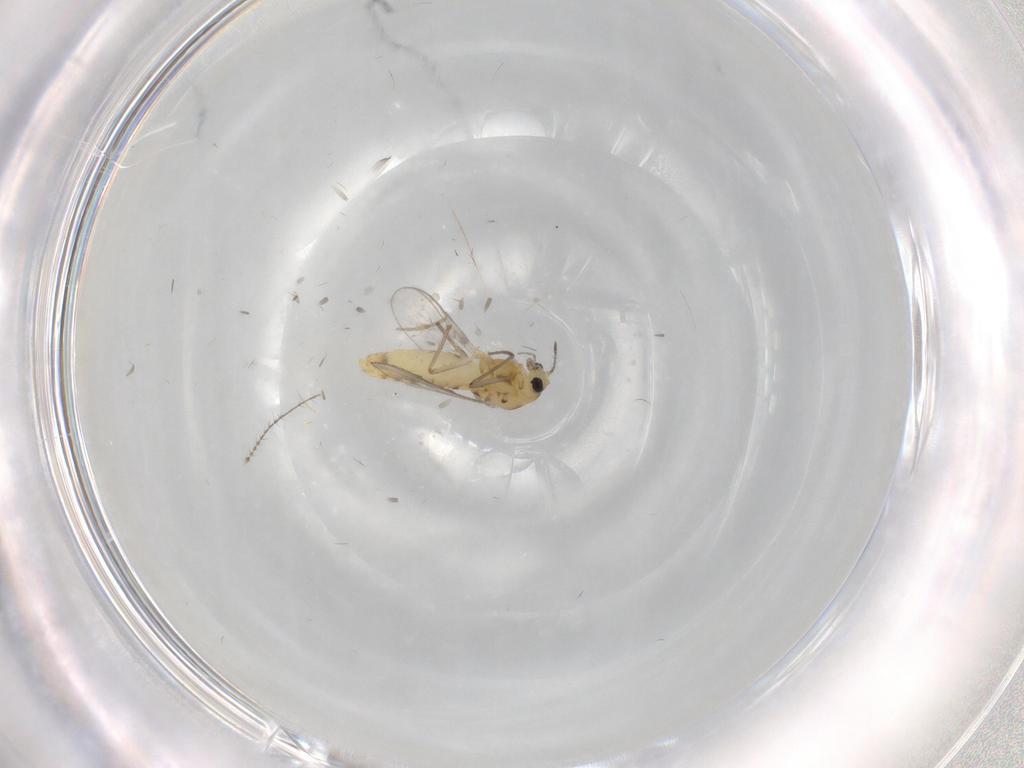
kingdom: Animalia
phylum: Arthropoda
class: Insecta
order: Diptera
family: Chironomidae
